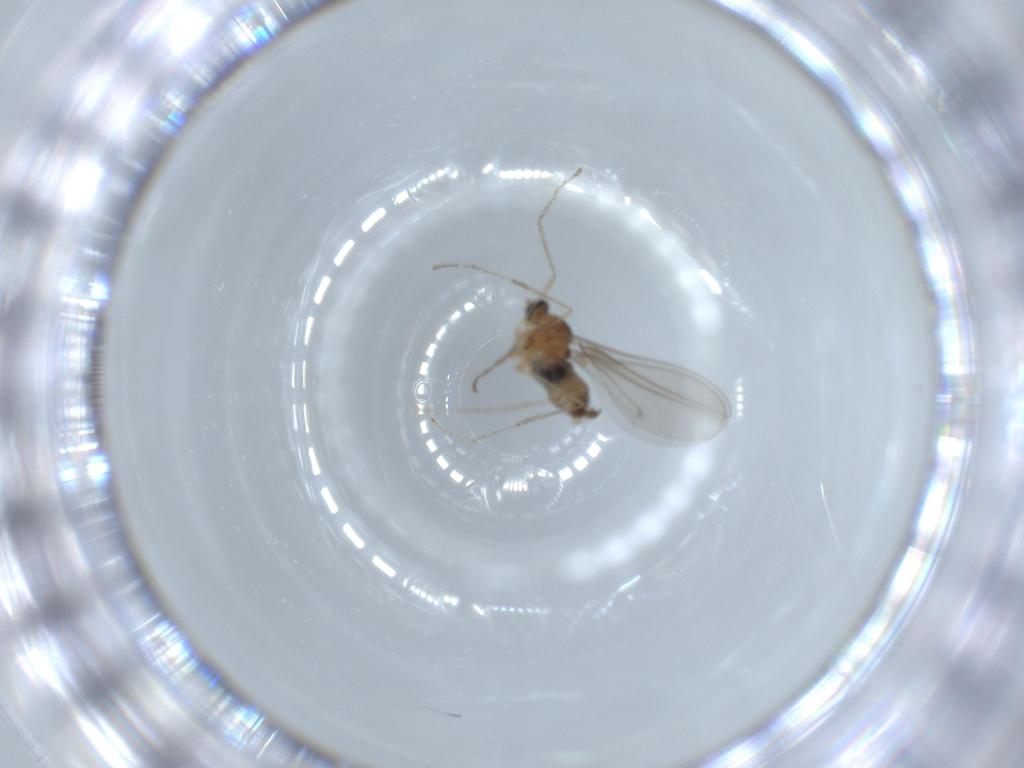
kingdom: Animalia
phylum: Arthropoda
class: Insecta
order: Diptera
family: Cecidomyiidae
